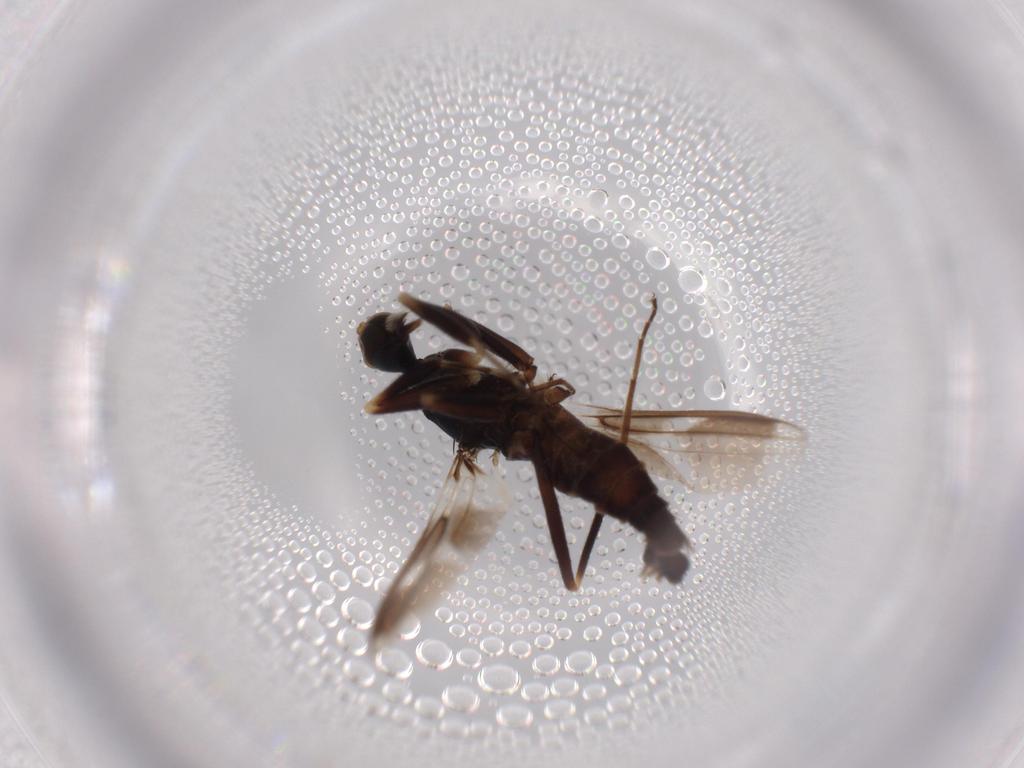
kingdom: Animalia
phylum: Arthropoda
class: Insecta
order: Diptera
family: Hybotidae
